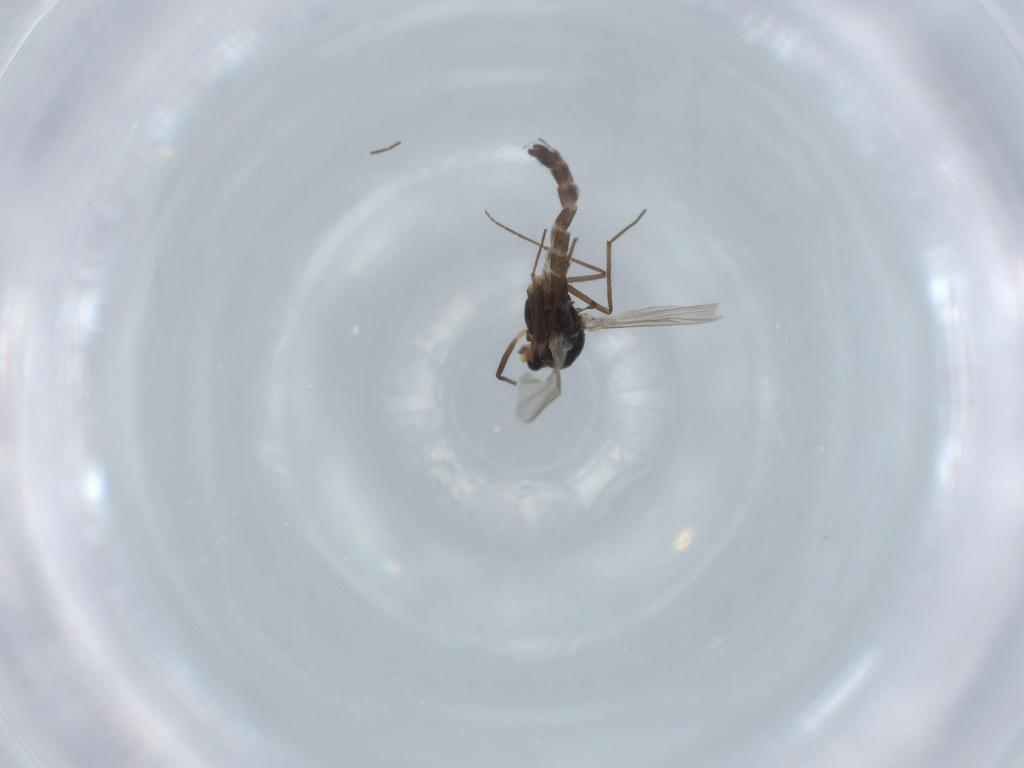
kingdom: Animalia
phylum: Arthropoda
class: Insecta
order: Diptera
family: Chironomidae
